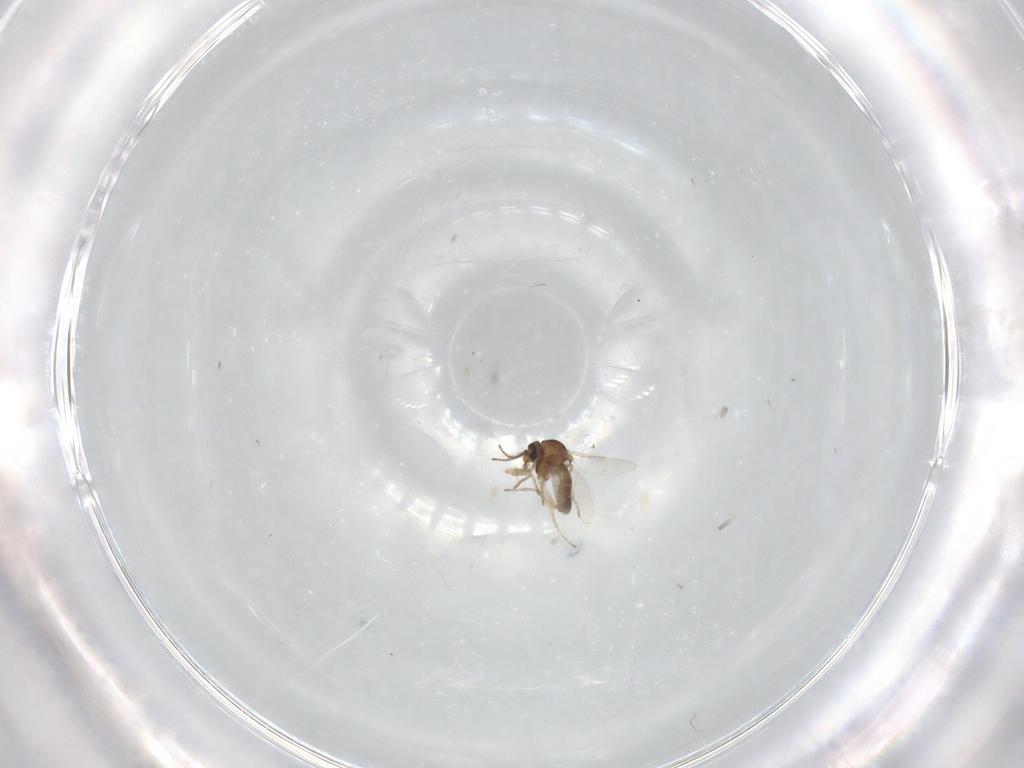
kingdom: Animalia
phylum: Arthropoda
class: Insecta
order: Diptera
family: Ceratopogonidae
